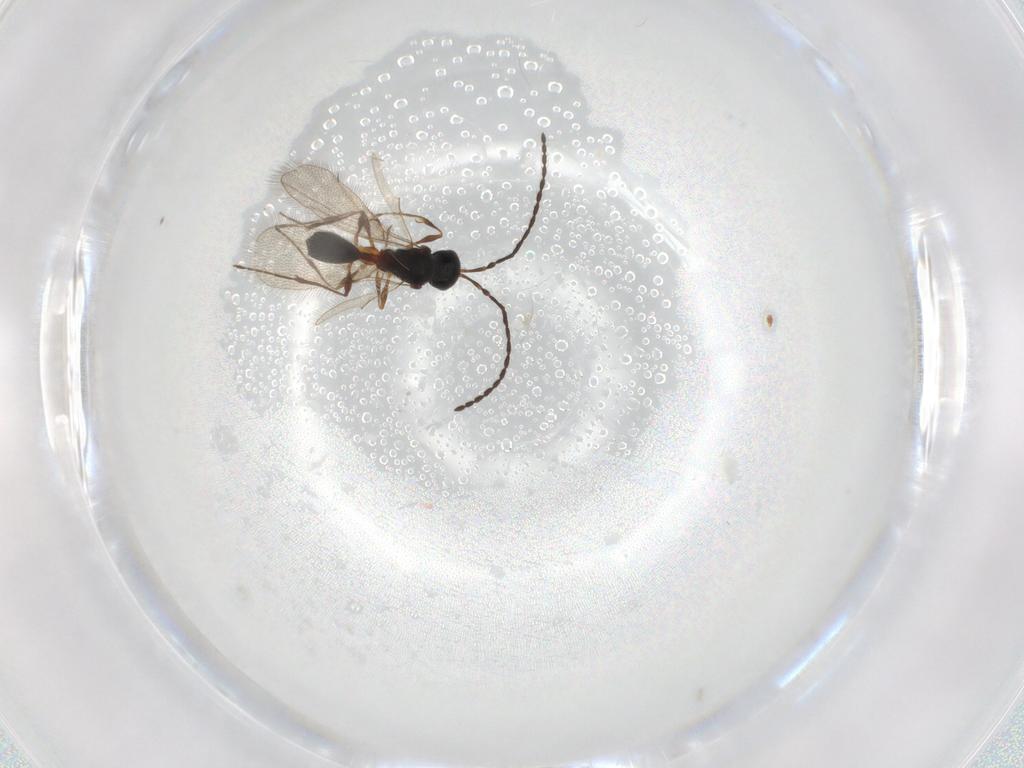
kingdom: Animalia
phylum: Arthropoda
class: Insecta
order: Hymenoptera
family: Diapriidae
